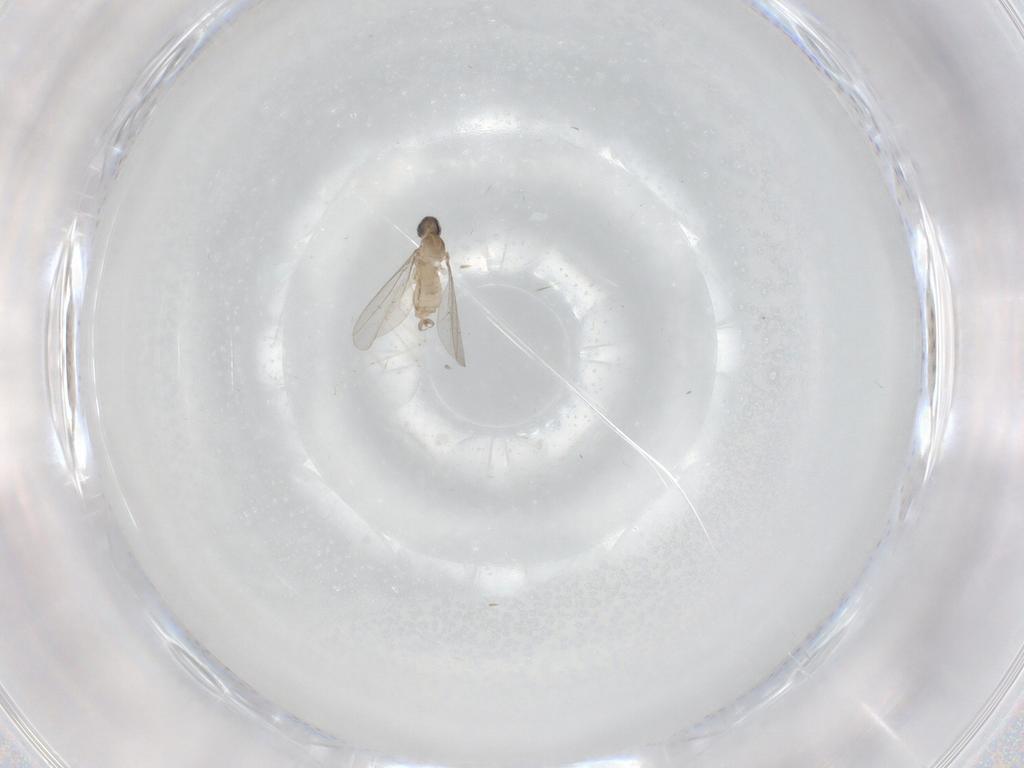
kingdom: Animalia
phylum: Arthropoda
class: Insecta
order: Diptera
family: Cecidomyiidae
